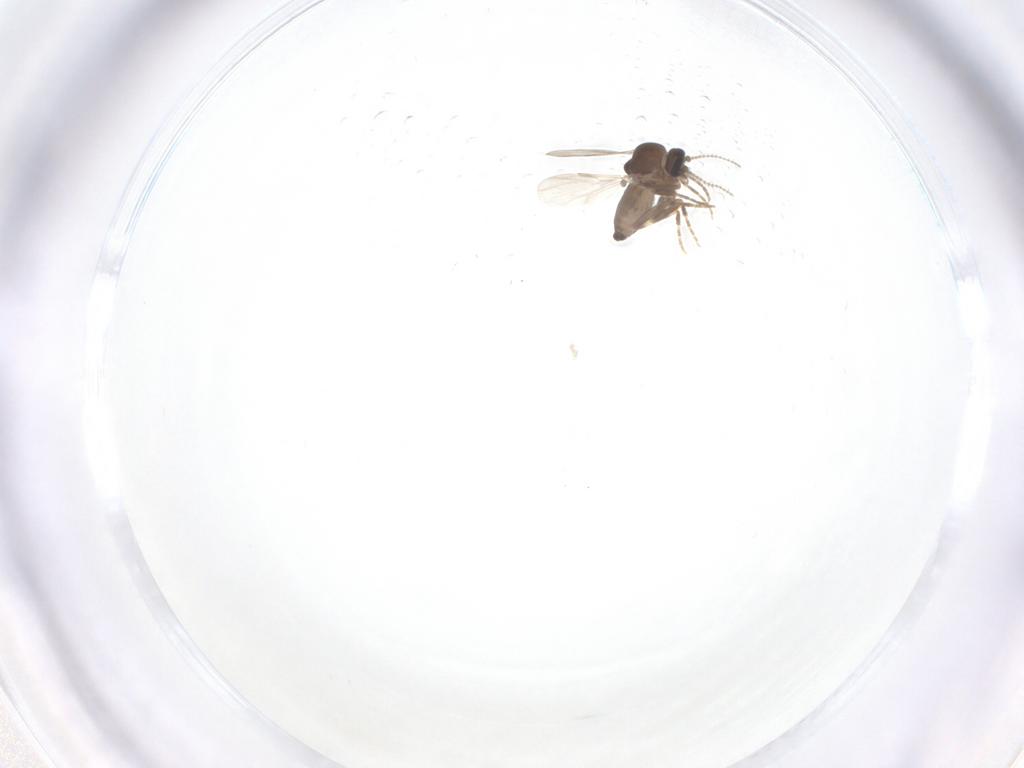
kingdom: Animalia
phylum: Arthropoda
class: Insecta
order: Diptera
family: Ceratopogonidae
